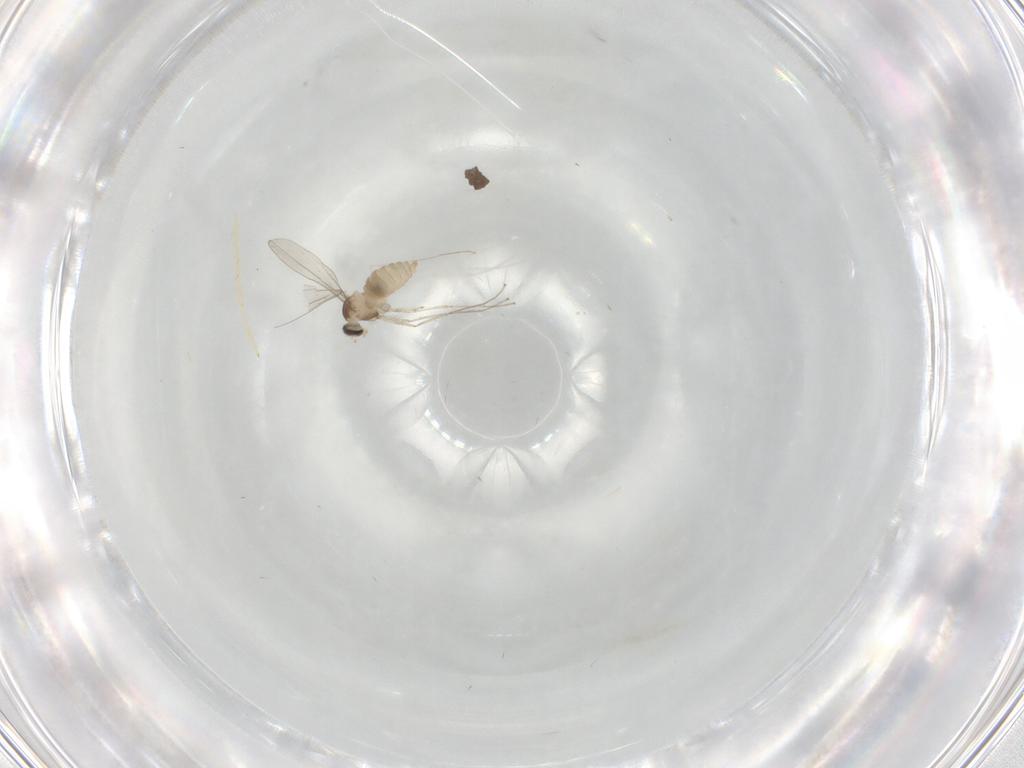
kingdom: Animalia
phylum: Arthropoda
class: Insecta
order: Diptera
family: Cecidomyiidae
